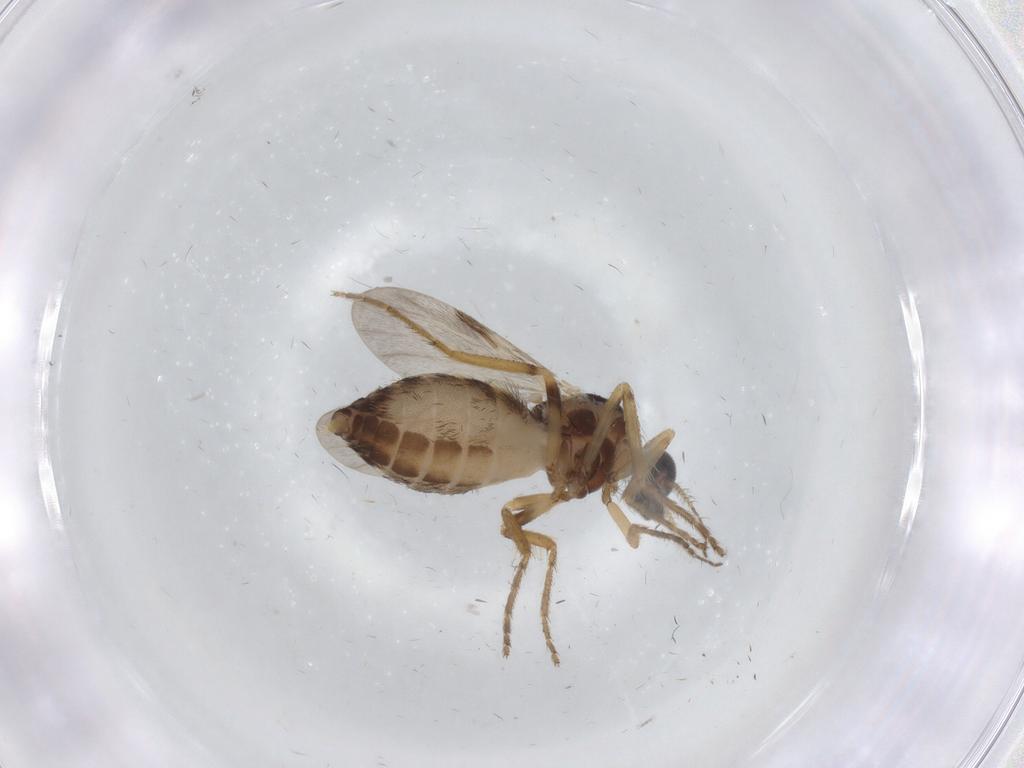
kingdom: Animalia
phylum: Arthropoda
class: Insecta
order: Diptera
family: Ceratopogonidae
